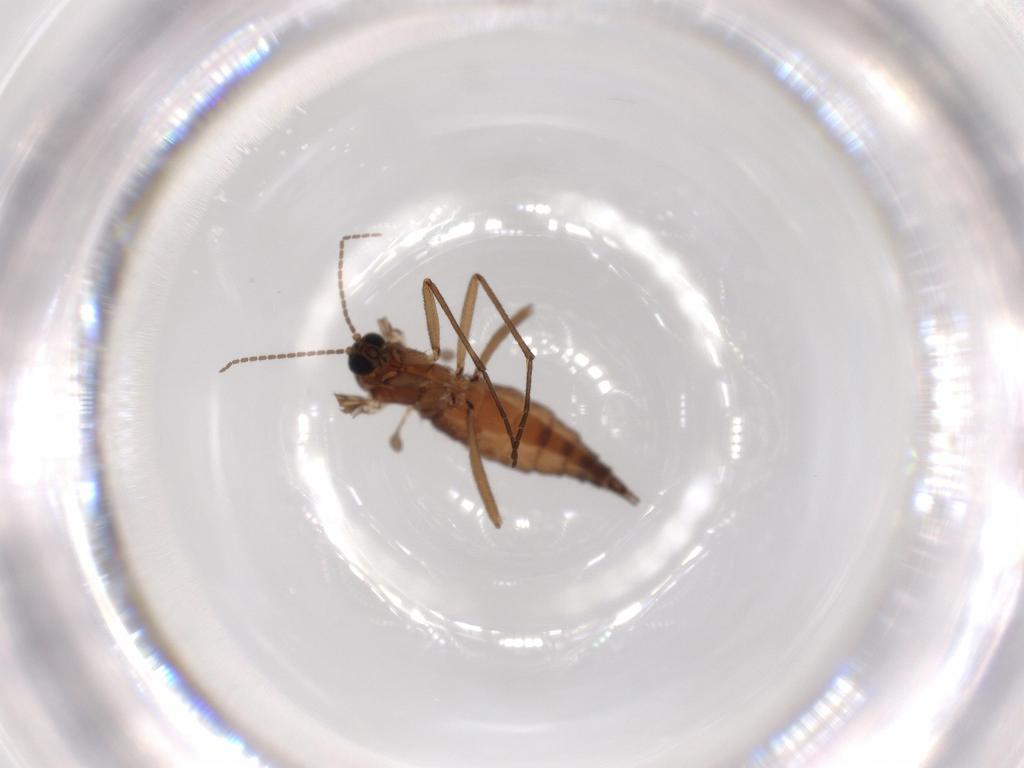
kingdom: Animalia
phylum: Arthropoda
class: Insecta
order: Diptera
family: Sciaridae
